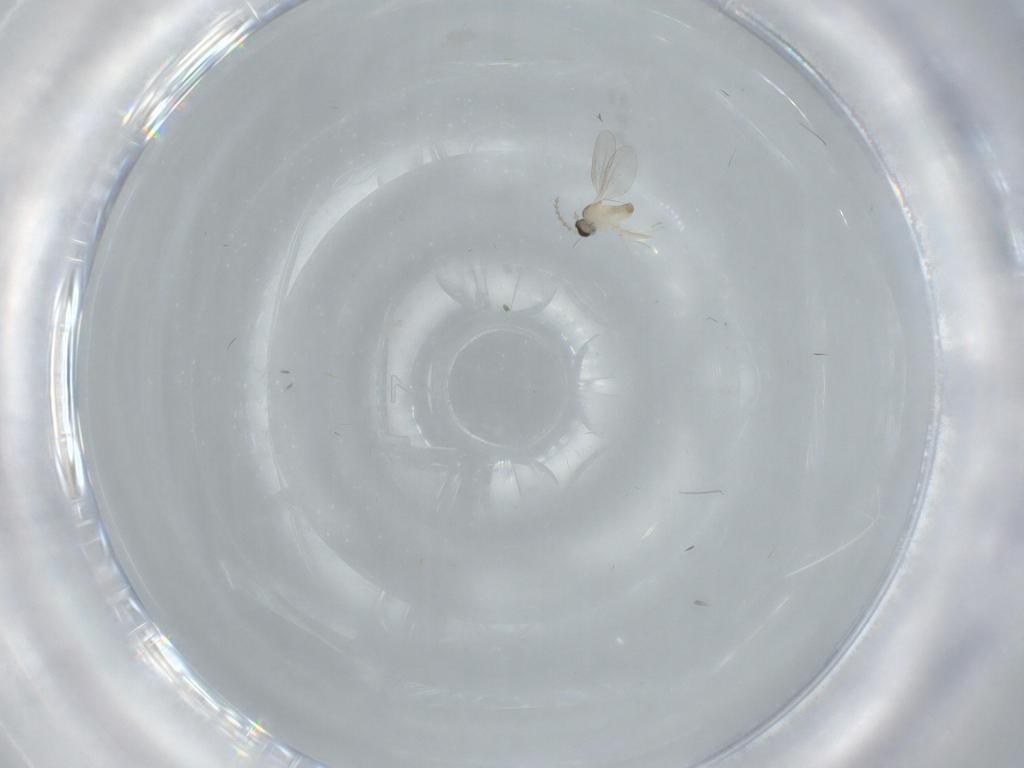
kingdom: Animalia
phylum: Arthropoda
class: Insecta
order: Diptera
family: Cecidomyiidae
